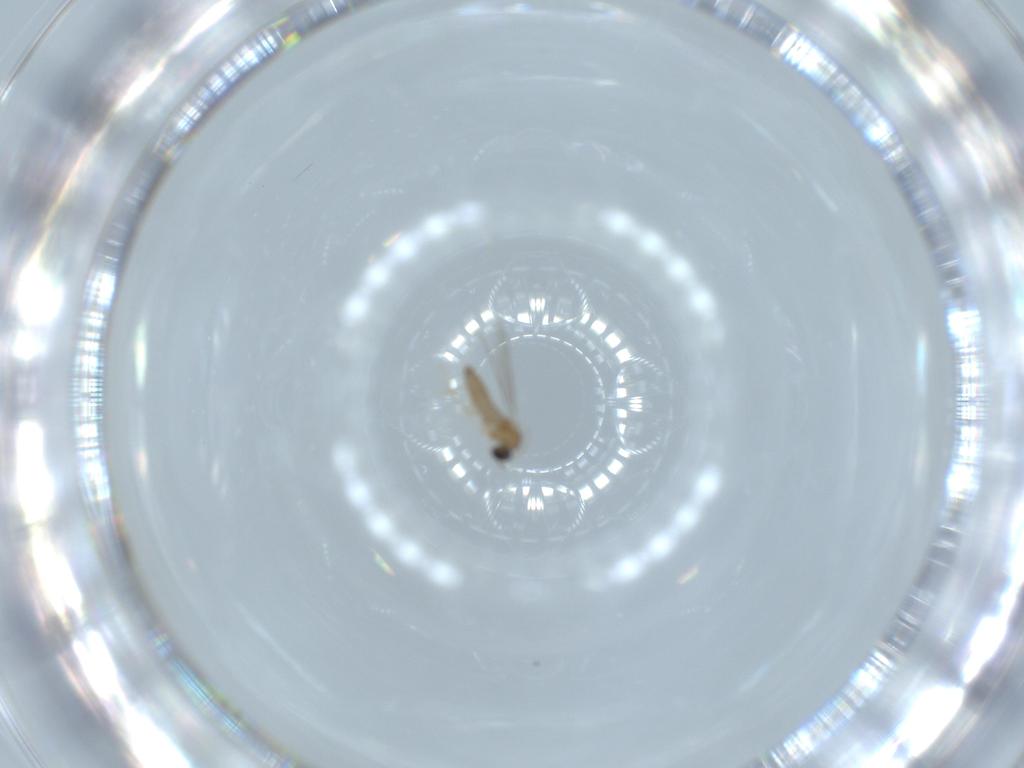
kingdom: Animalia
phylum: Arthropoda
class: Insecta
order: Diptera
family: Cecidomyiidae
